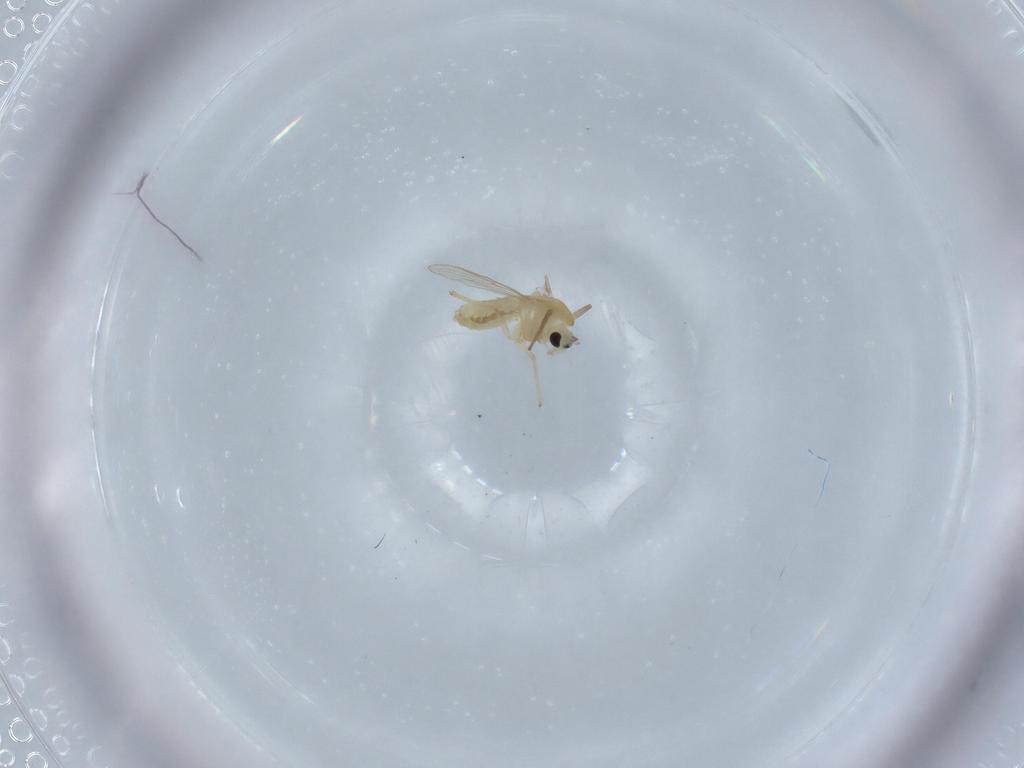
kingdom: Animalia
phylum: Arthropoda
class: Insecta
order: Diptera
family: Chironomidae
